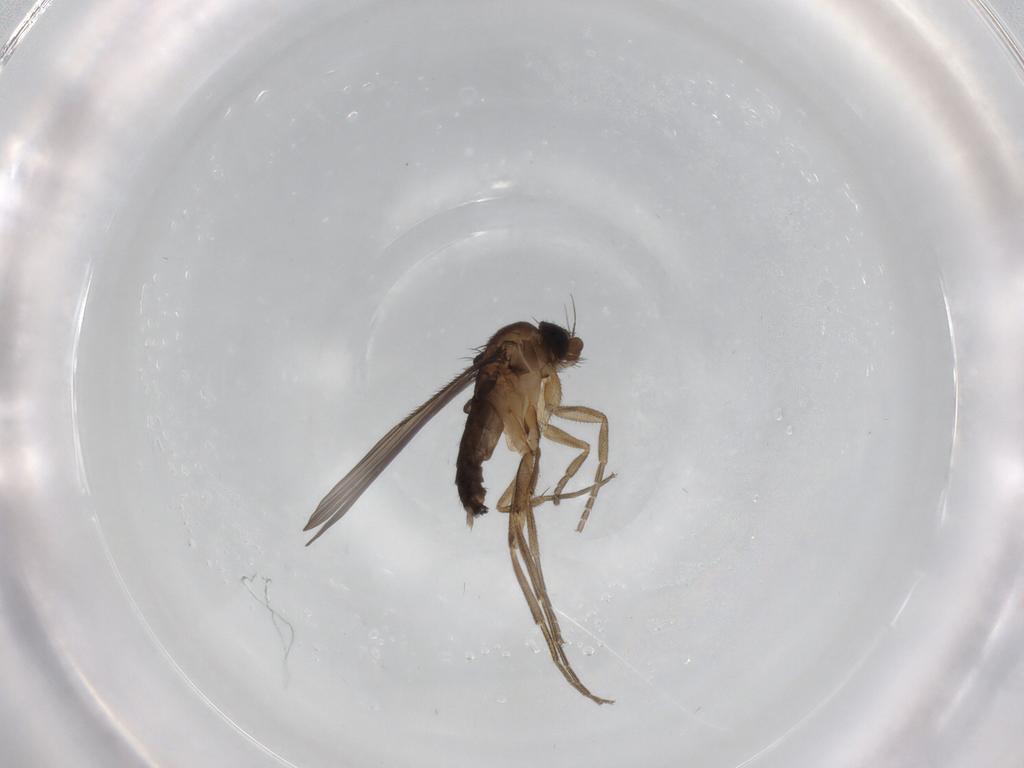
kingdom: Animalia
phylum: Arthropoda
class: Insecta
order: Diptera
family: Phoridae
